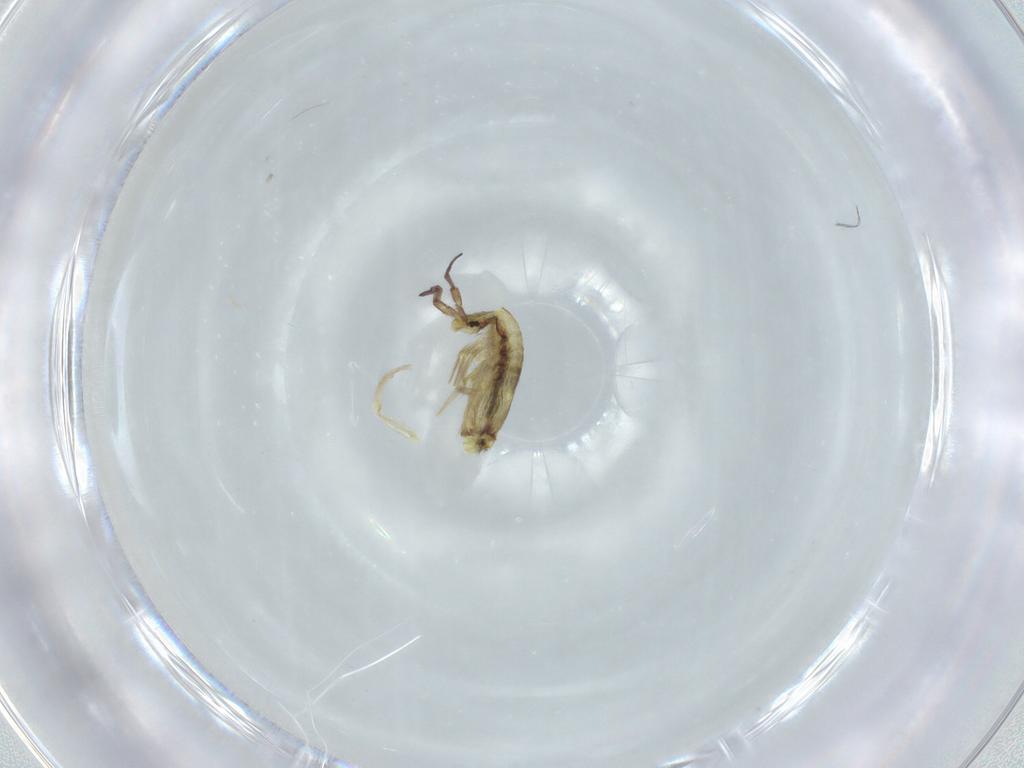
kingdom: Animalia
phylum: Arthropoda
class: Collembola
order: Entomobryomorpha
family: Entomobryidae
